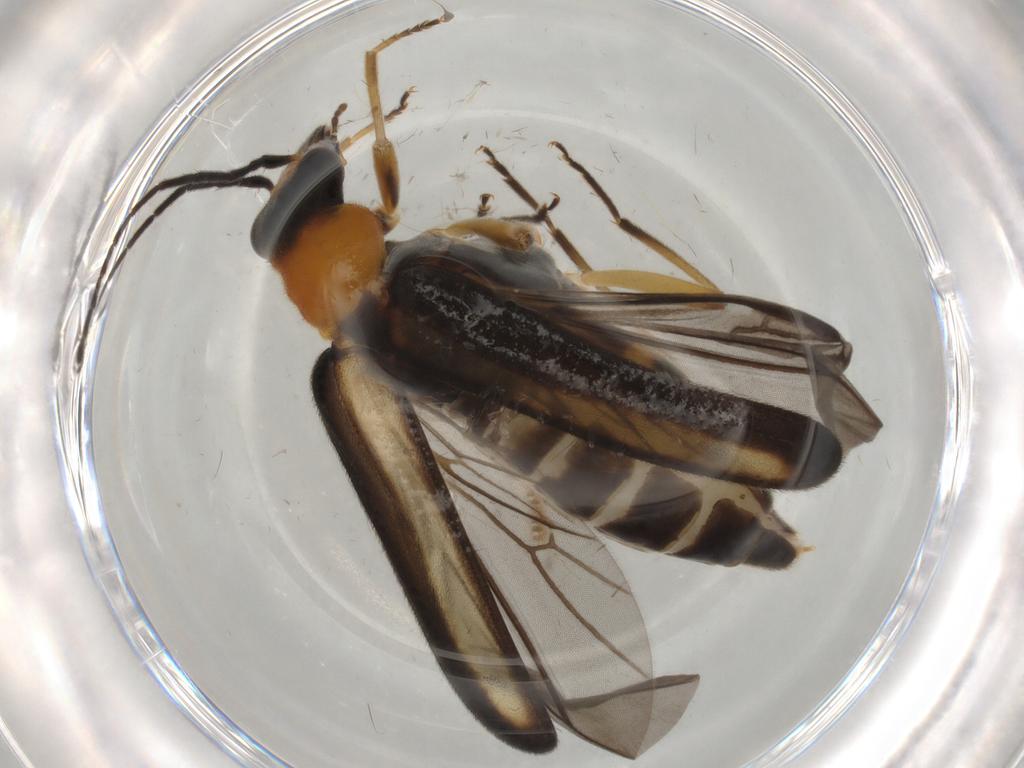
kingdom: Animalia
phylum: Arthropoda
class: Insecta
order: Coleoptera
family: Oedemeridae
